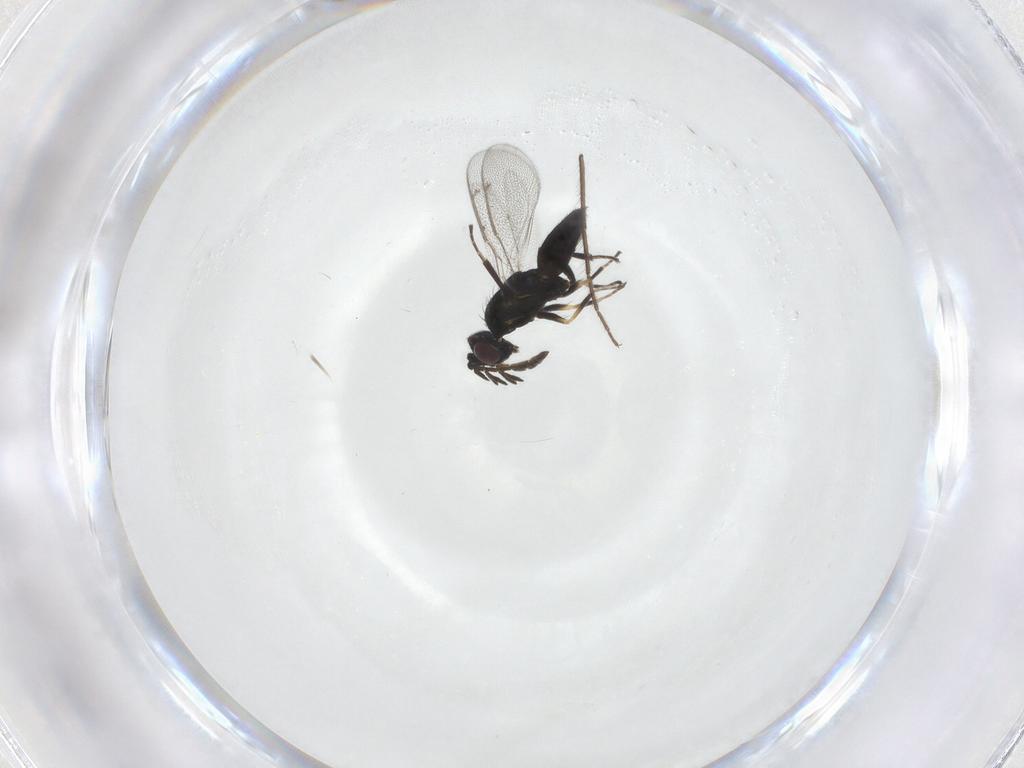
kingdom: Animalia
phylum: Arthropoda
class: Insecta
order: Hymenoptera
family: Eulophidae
